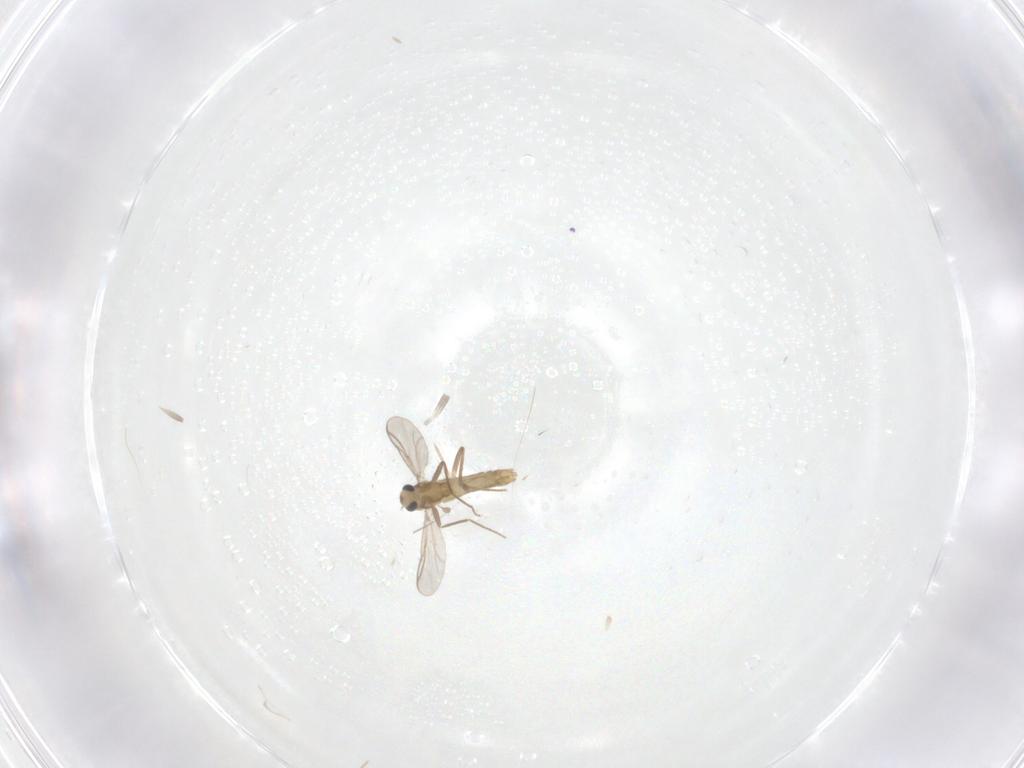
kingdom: Animalia
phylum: Arthropoda
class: Insecta
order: Diptera
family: Chironomidae
